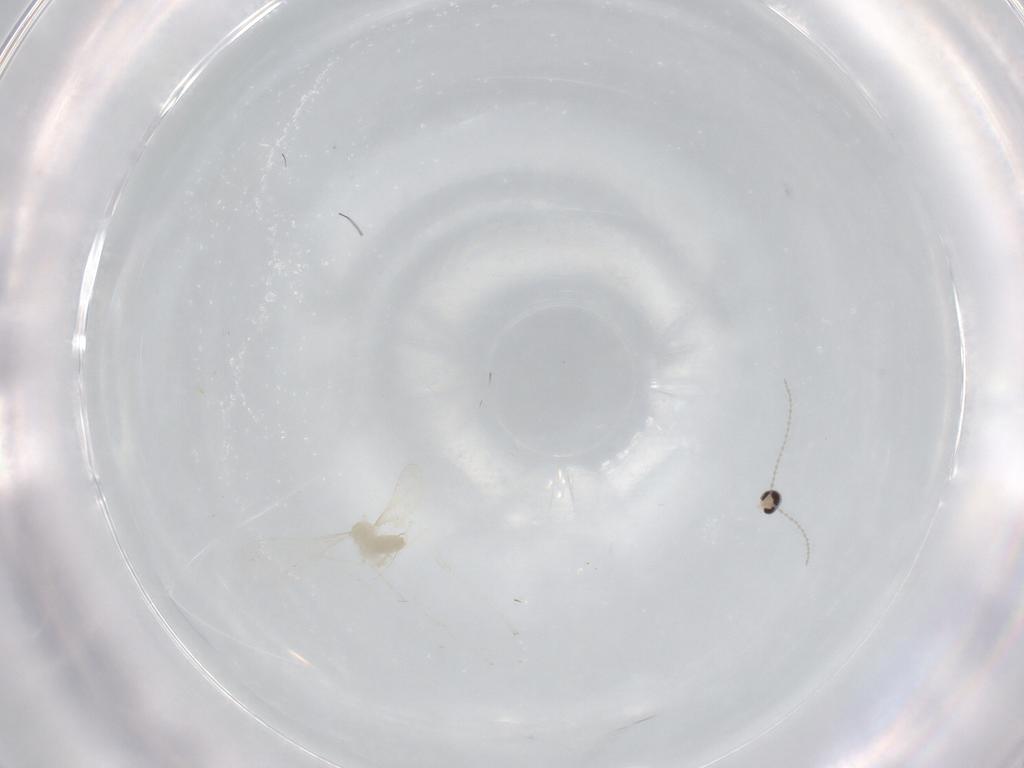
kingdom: Animalia
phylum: Arthropoda
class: Insecta
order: Diptera
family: Cecidomyiidae
